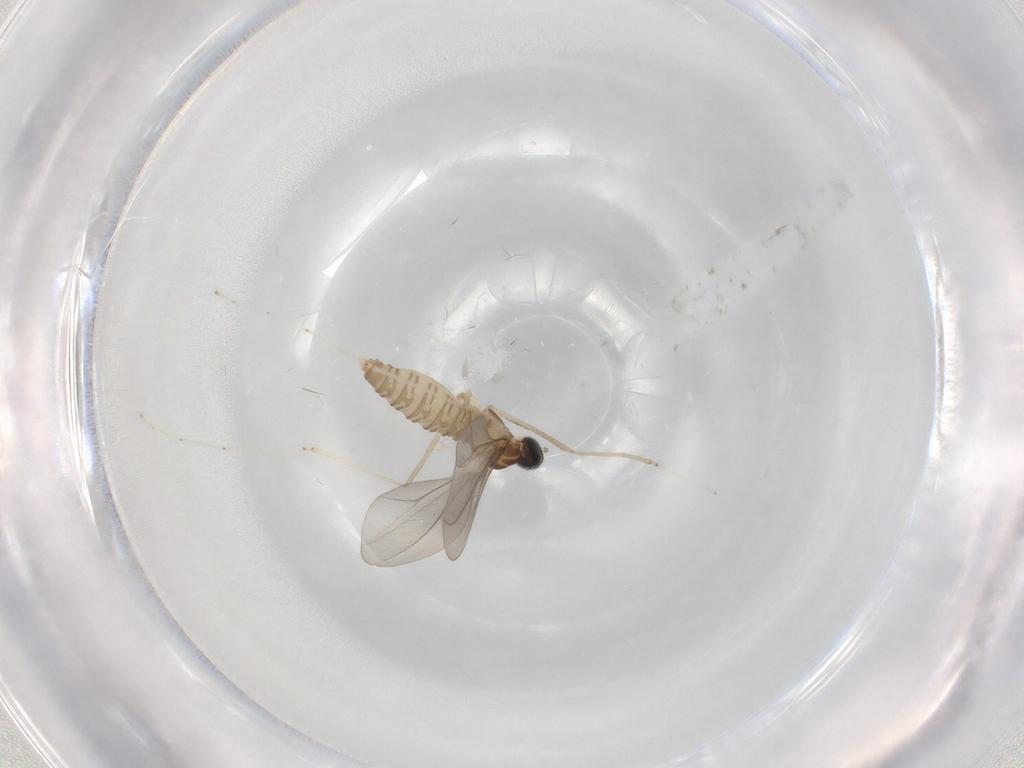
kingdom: Animalia
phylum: Arthropoda
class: Insecta
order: Diptera
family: Cecidomyiidae
